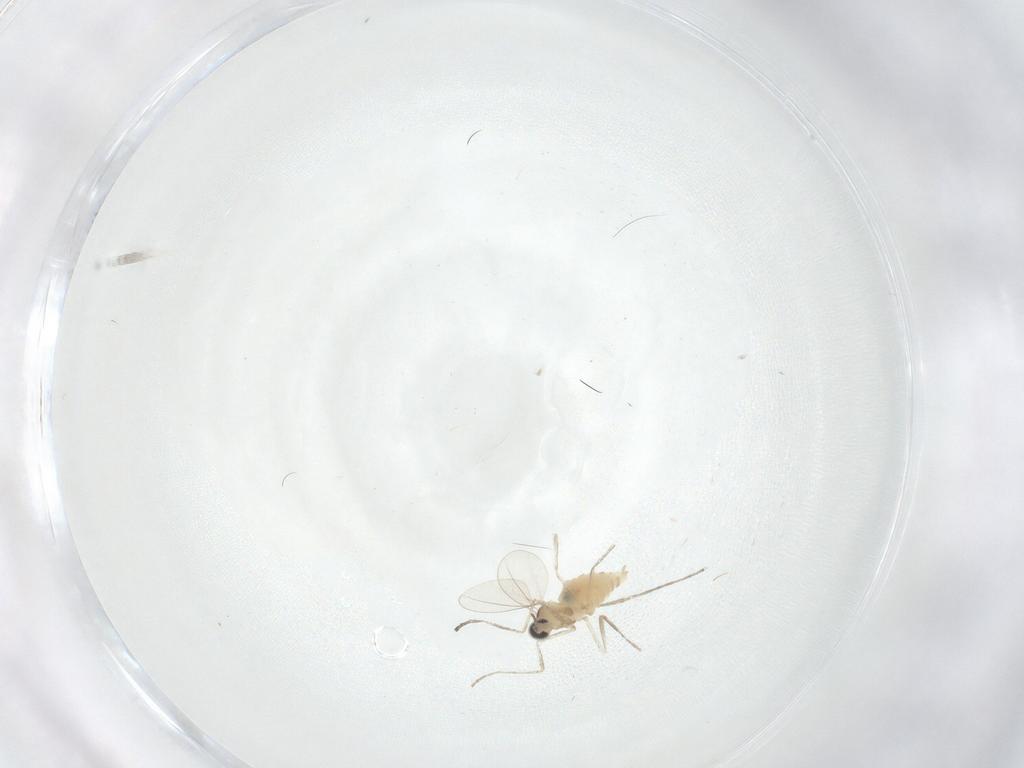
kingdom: Animalia
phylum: Arthropoda
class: Insecta
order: Diptera
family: Cecidomyiidae
